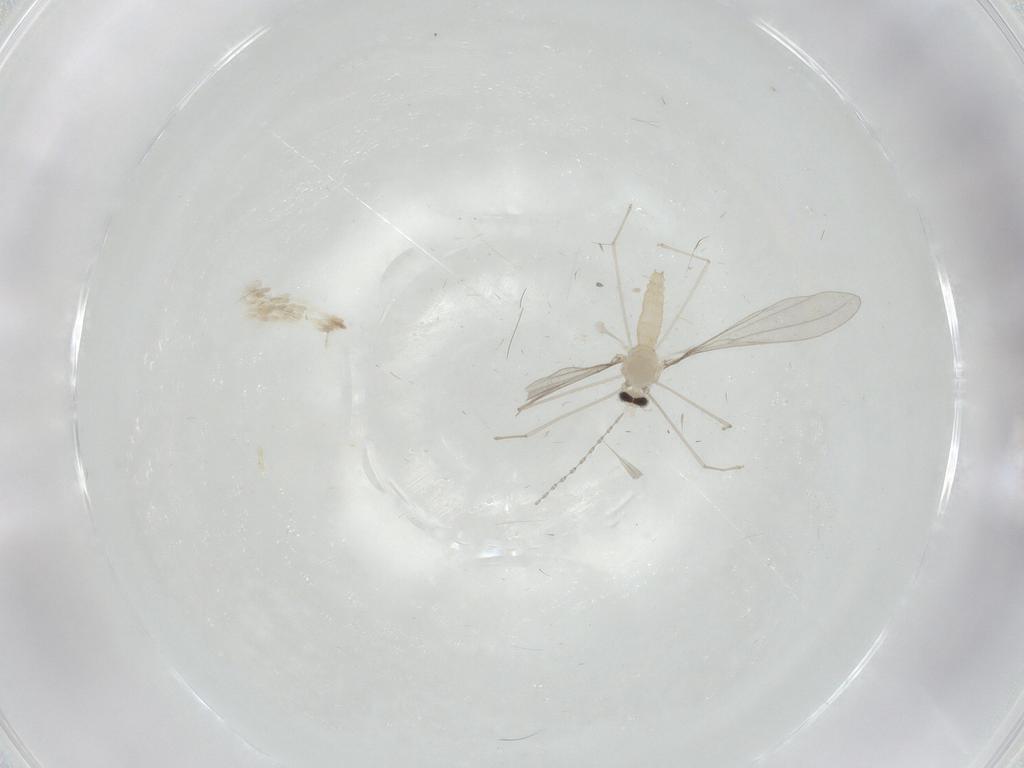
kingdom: Animalia
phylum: Arthropoda
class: Insecta
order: Diptera
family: Cecidomyiidae
